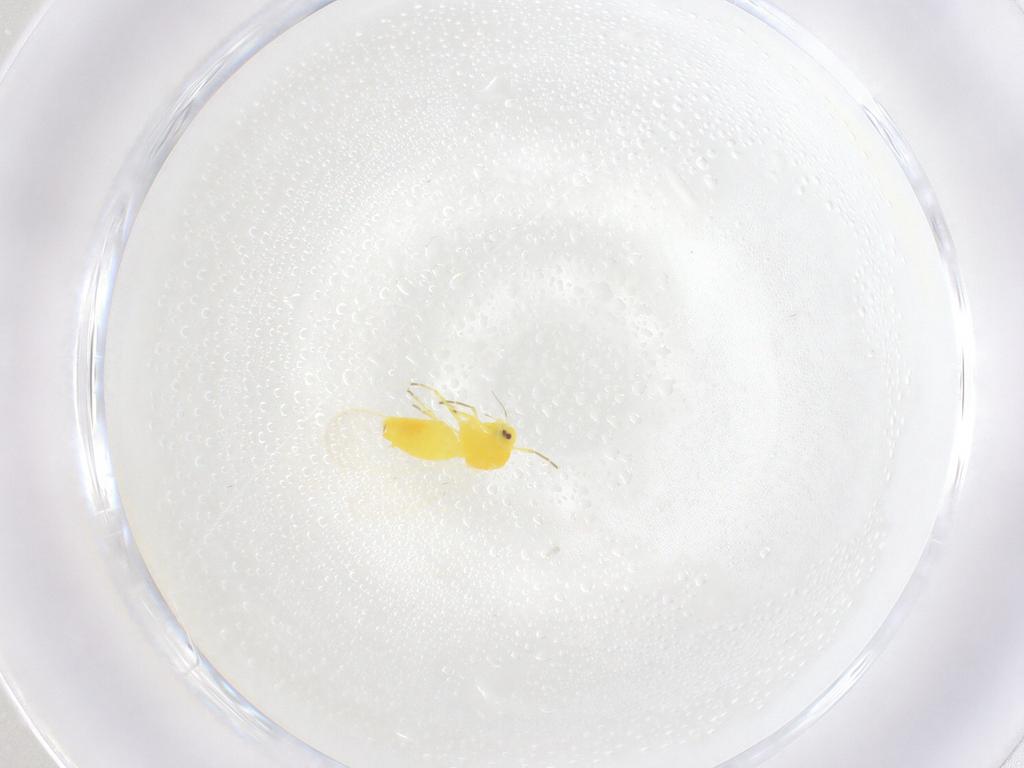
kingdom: Animalia
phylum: Arthropoda
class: Insecta
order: Hemiptera
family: Aleyrodidae
